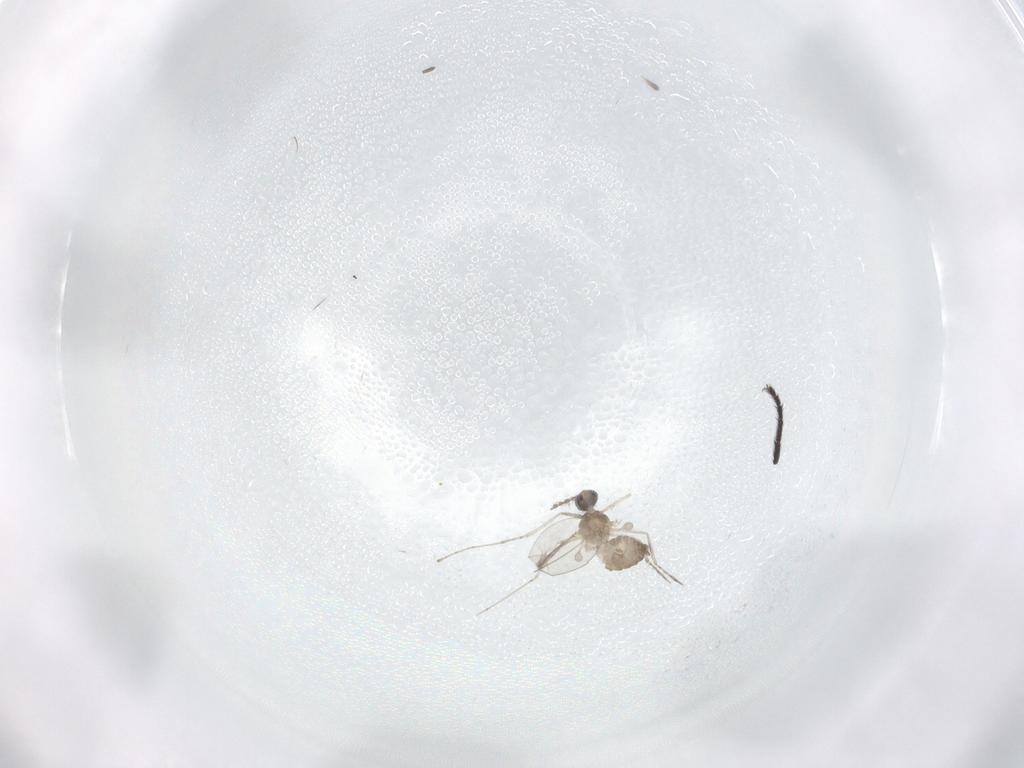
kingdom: Animalia
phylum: Arthropoda
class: Insecta
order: Diptera
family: Cecidomyiidae
